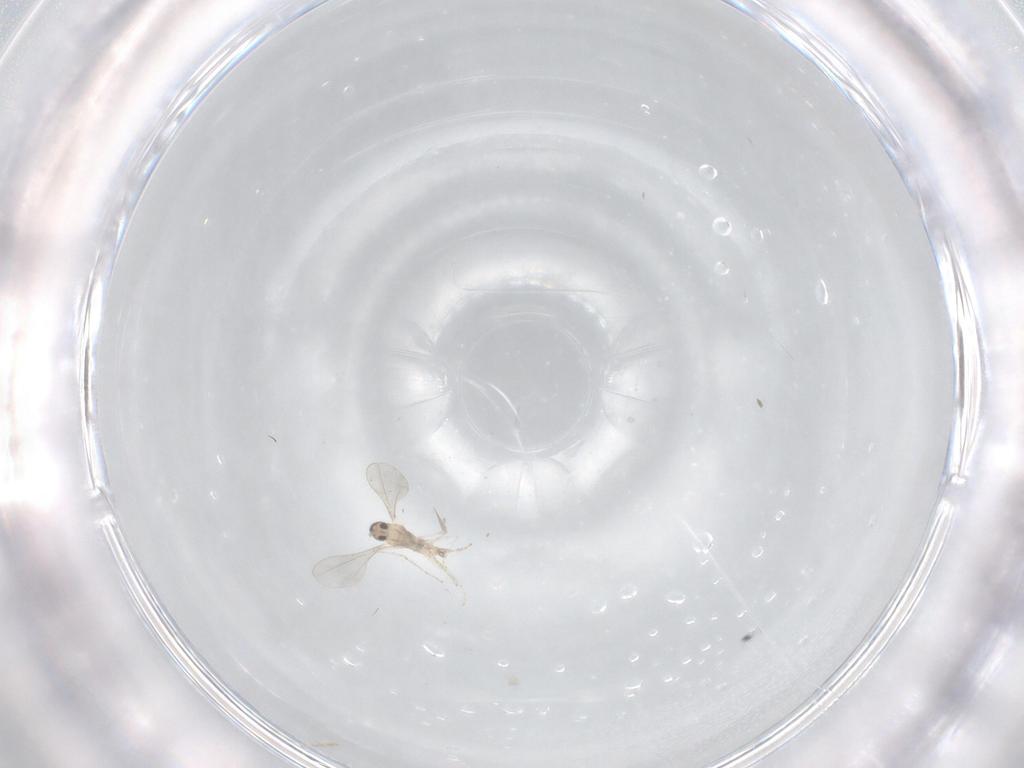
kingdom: Animalia
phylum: Arthropoda
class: Insecta
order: Diptera
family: Cecidomyiidae
